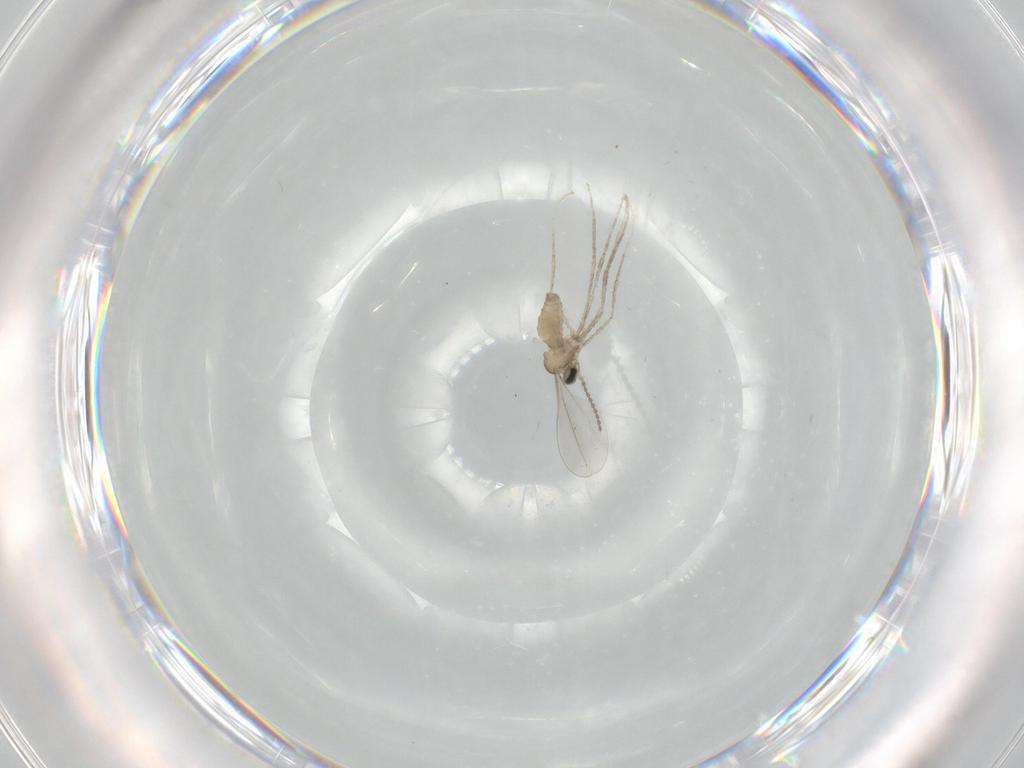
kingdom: Animalia
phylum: Arthropoda
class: Insecta
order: Diptera
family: Cecidomyiidae
